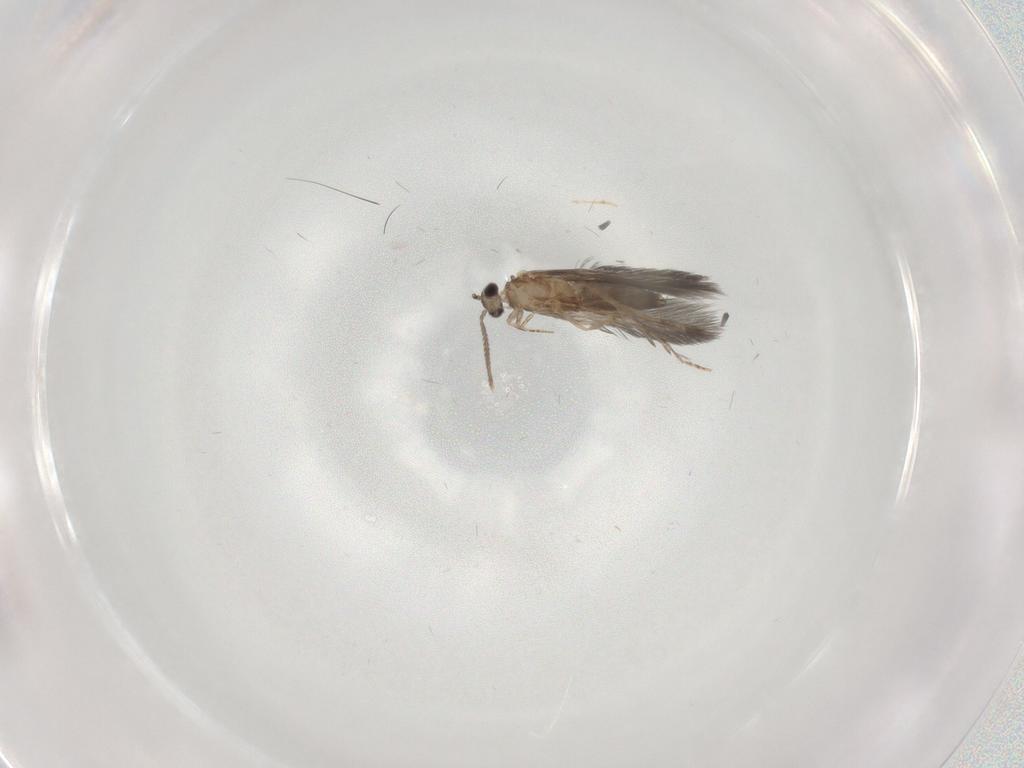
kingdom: Animalia
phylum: Arthropoda
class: Insecta
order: Trichoptera
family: Hydroptilidae
